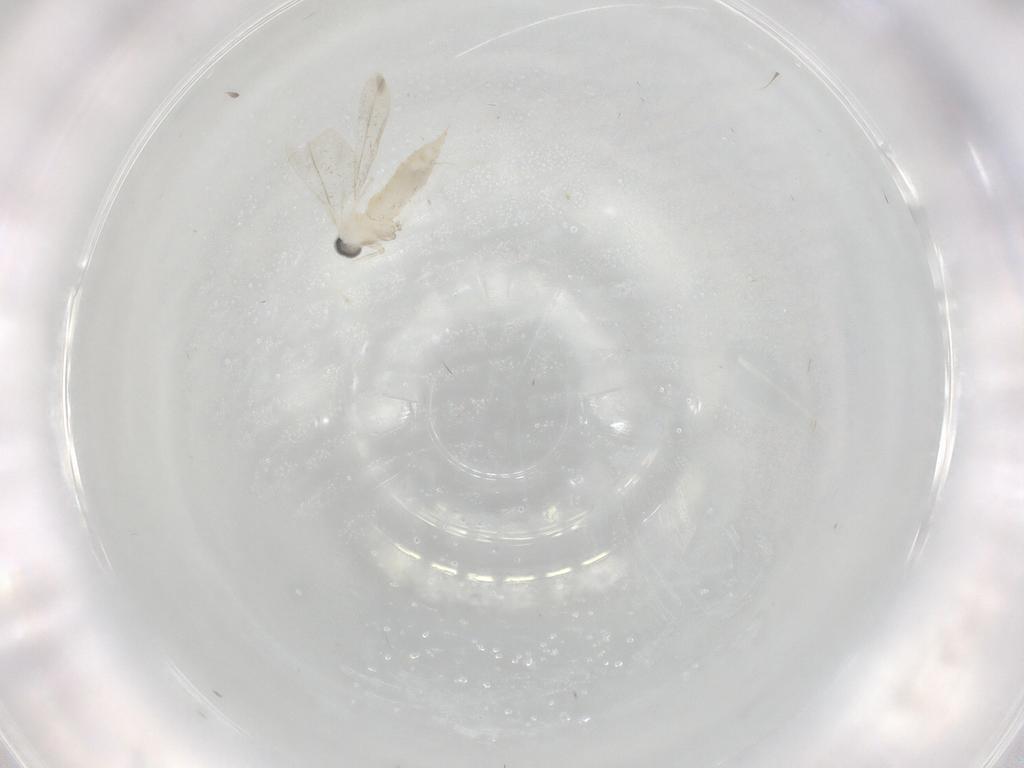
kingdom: Animalia
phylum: Arthropoda
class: Insecta
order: Diptera
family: Cecidomyiidae
